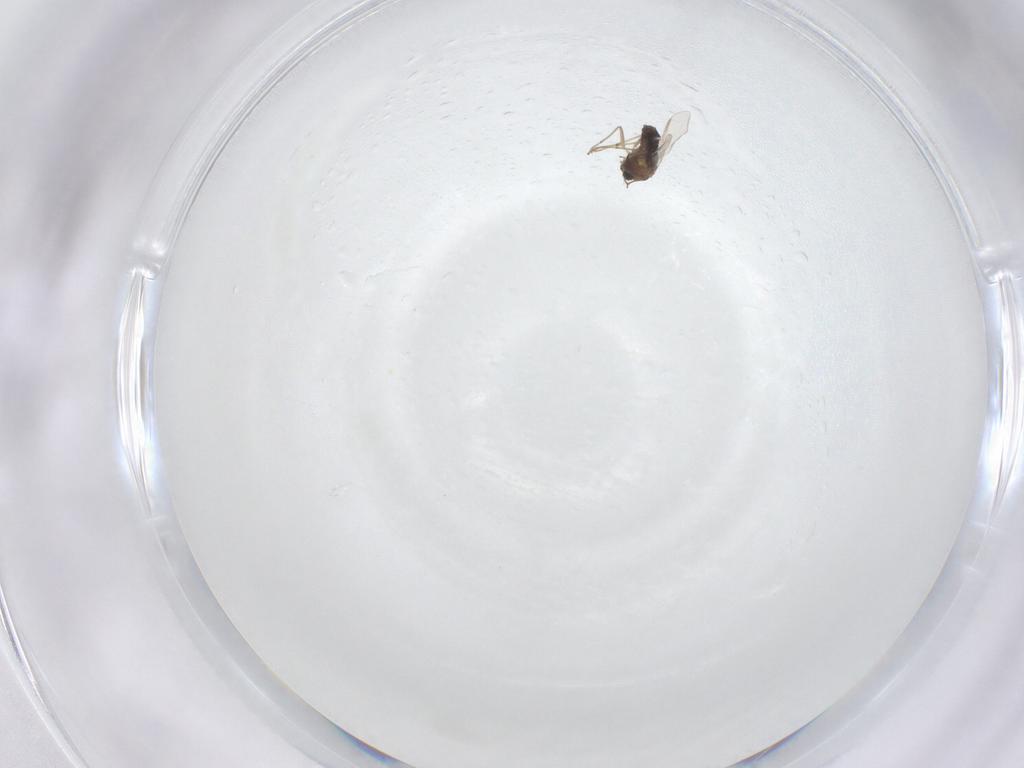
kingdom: Animalia
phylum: Arthropoda
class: Insecta
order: Diptera
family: Chironomidae
